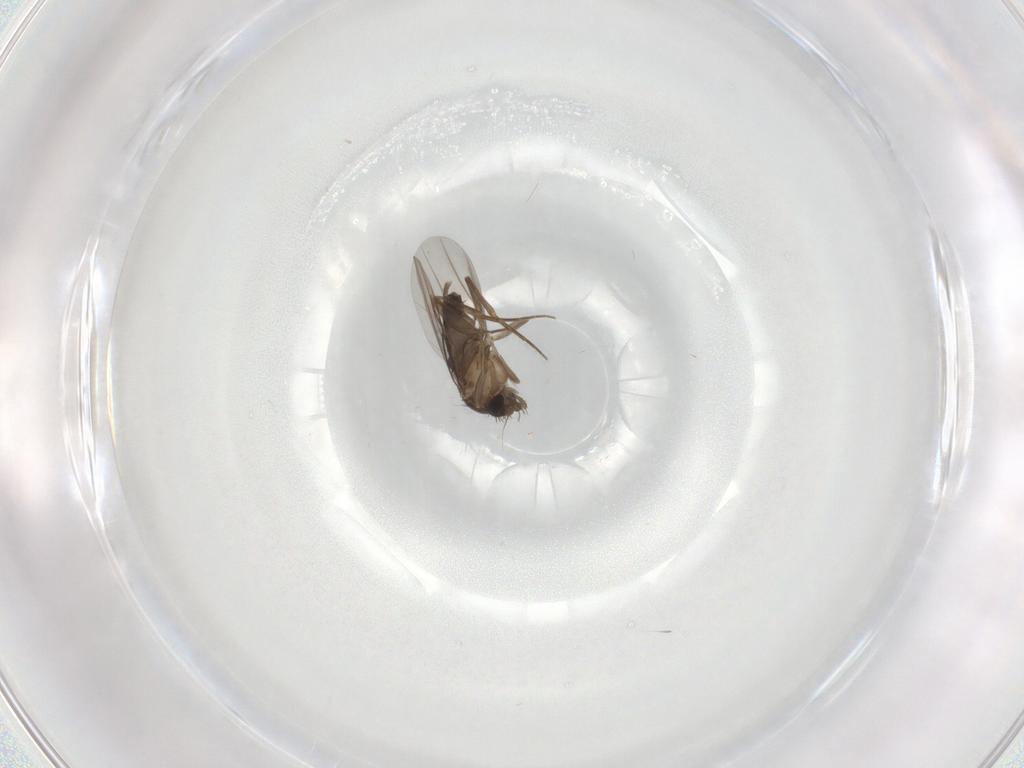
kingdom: Animalia
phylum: Arthropoda
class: Insecta
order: Diptera
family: Phoridae
